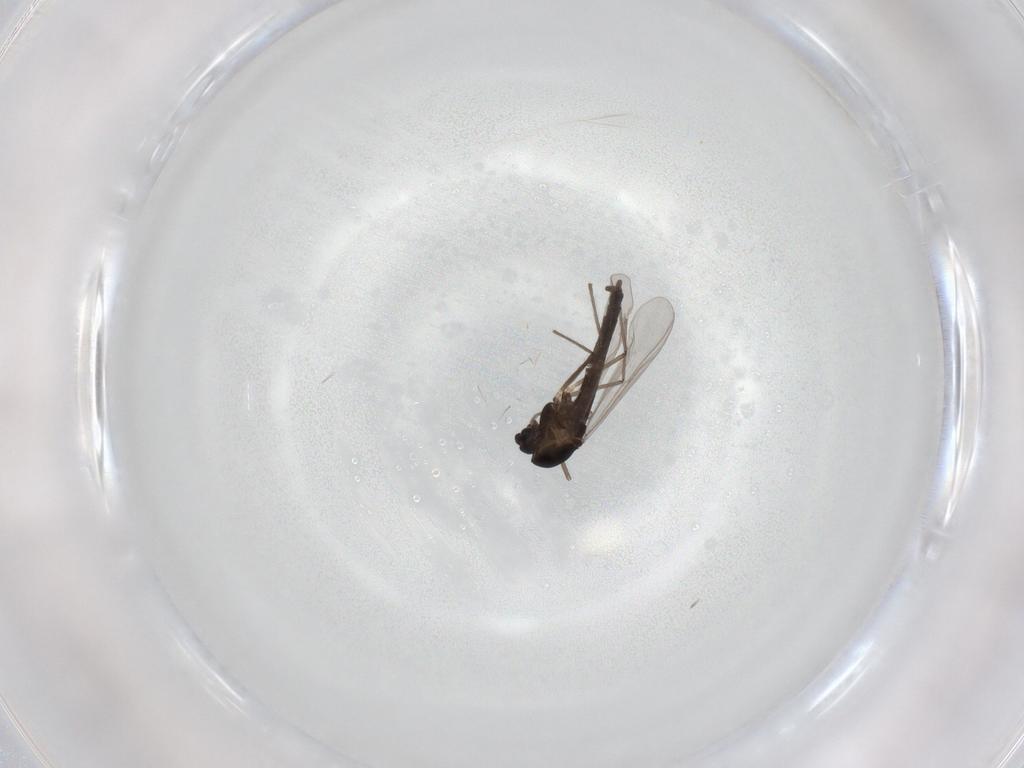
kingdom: Animalia
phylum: Arthropoda
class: Insecta
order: Diptera
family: Chironomidae
